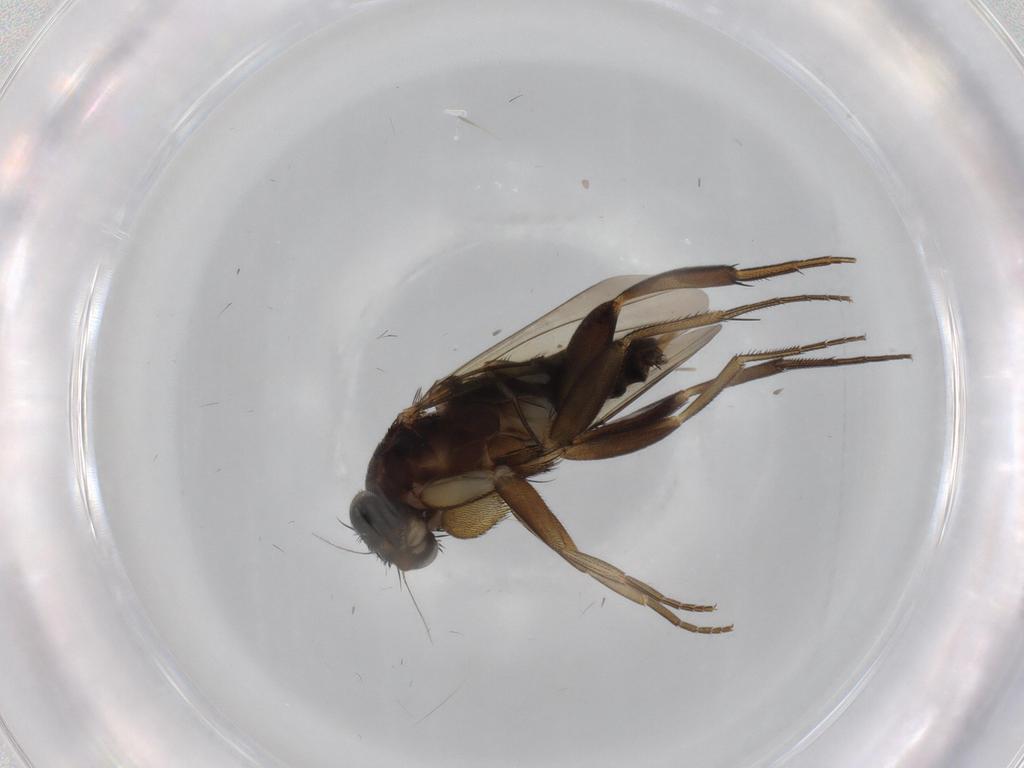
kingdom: Animalia
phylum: Arthropoda
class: Insecta
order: Diptera
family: Phoridae
